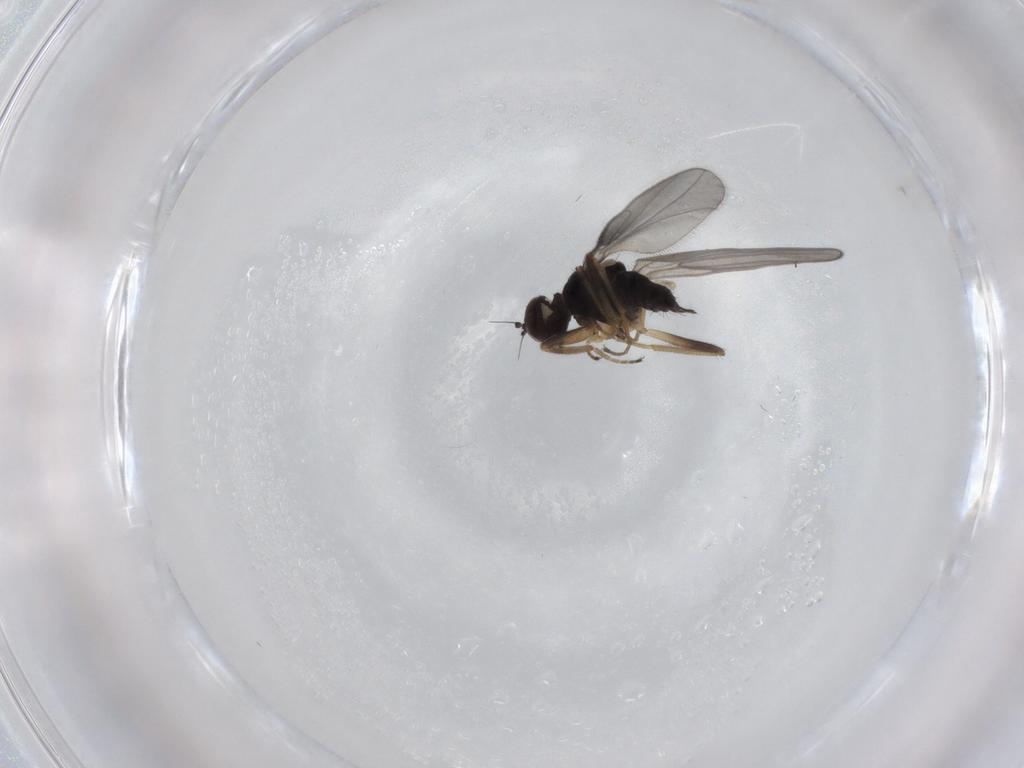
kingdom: Animalia
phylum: Arthropoda
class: Insecta
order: Diptera
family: Hybotidae
